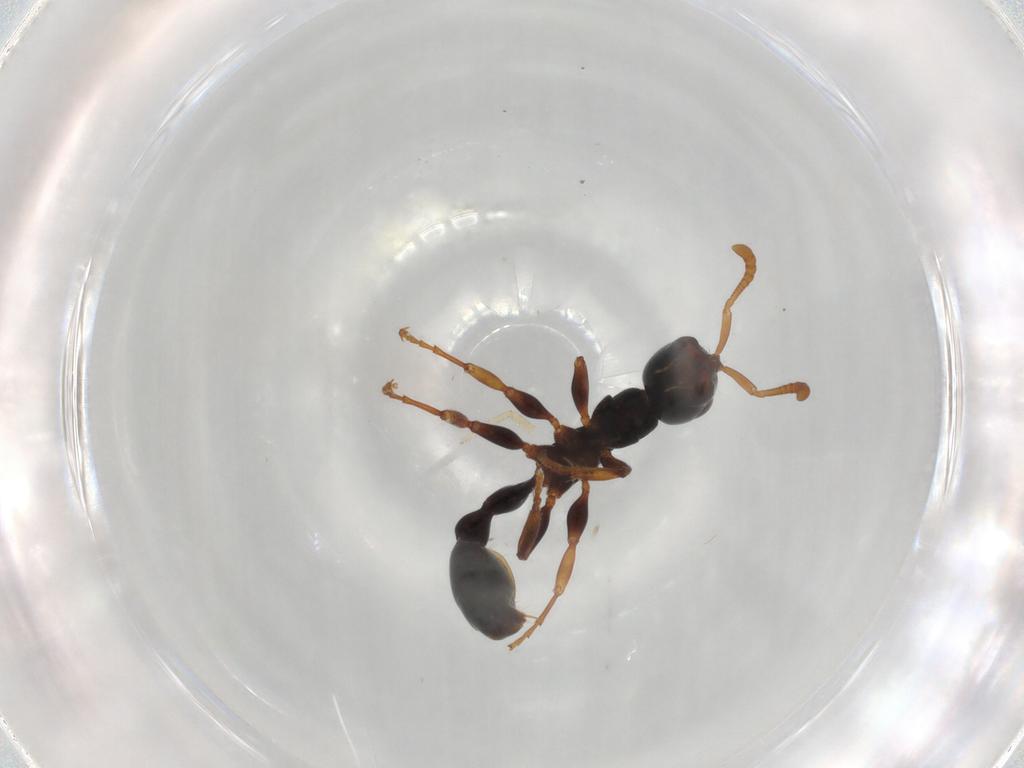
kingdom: Animalia
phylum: Arthropoda
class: Insecta
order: Hymenoptera
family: Formicidae
